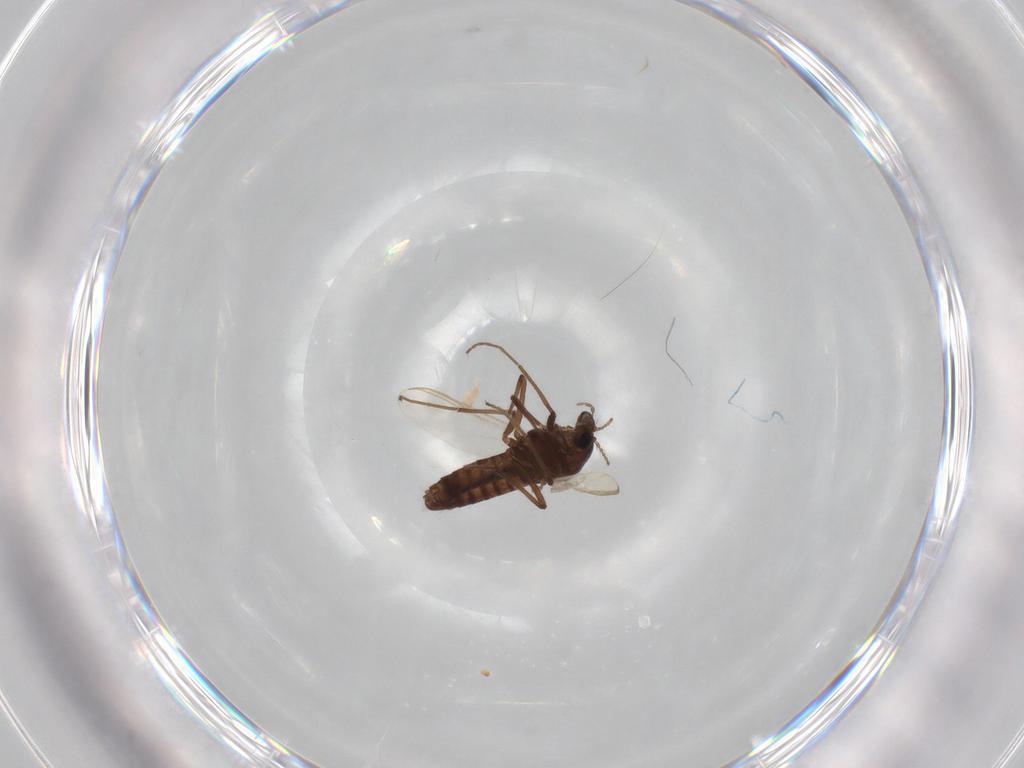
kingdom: Animalia
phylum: Arthropoda
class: Insecta
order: Diptera
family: Chironomidae
